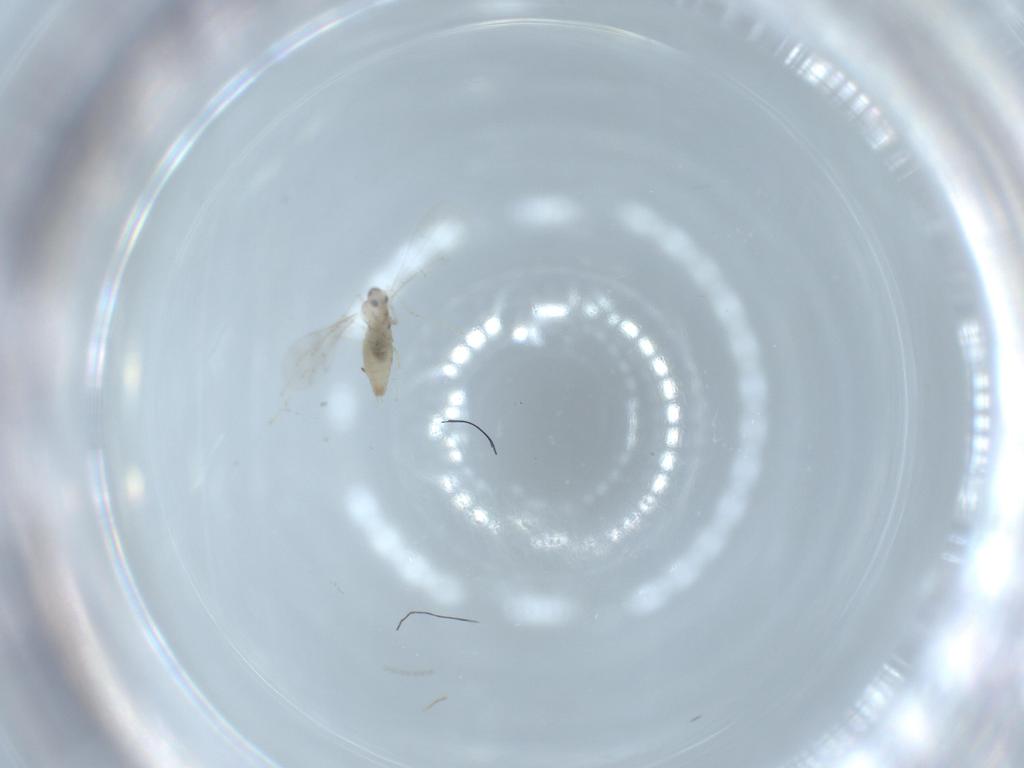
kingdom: Animalia
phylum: Arthropoda
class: Insecta
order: Diptera
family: Cecidomyiidae
